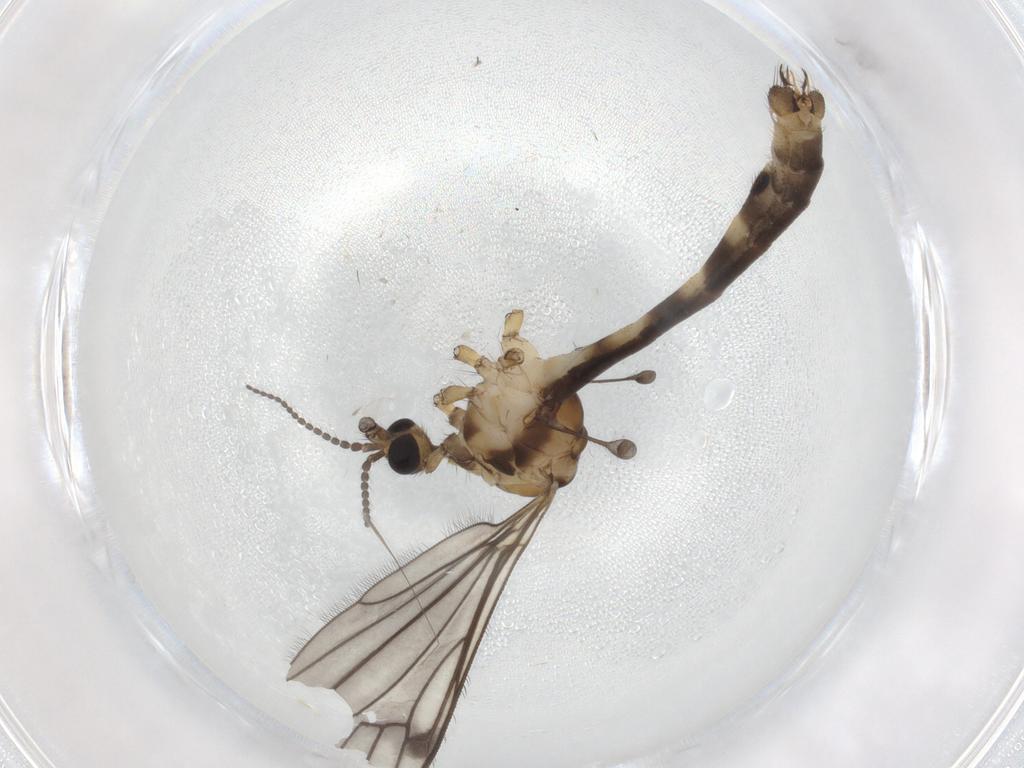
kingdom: Animalia
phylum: Arthropoda
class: Insecta
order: Diptera
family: Limoniidae
